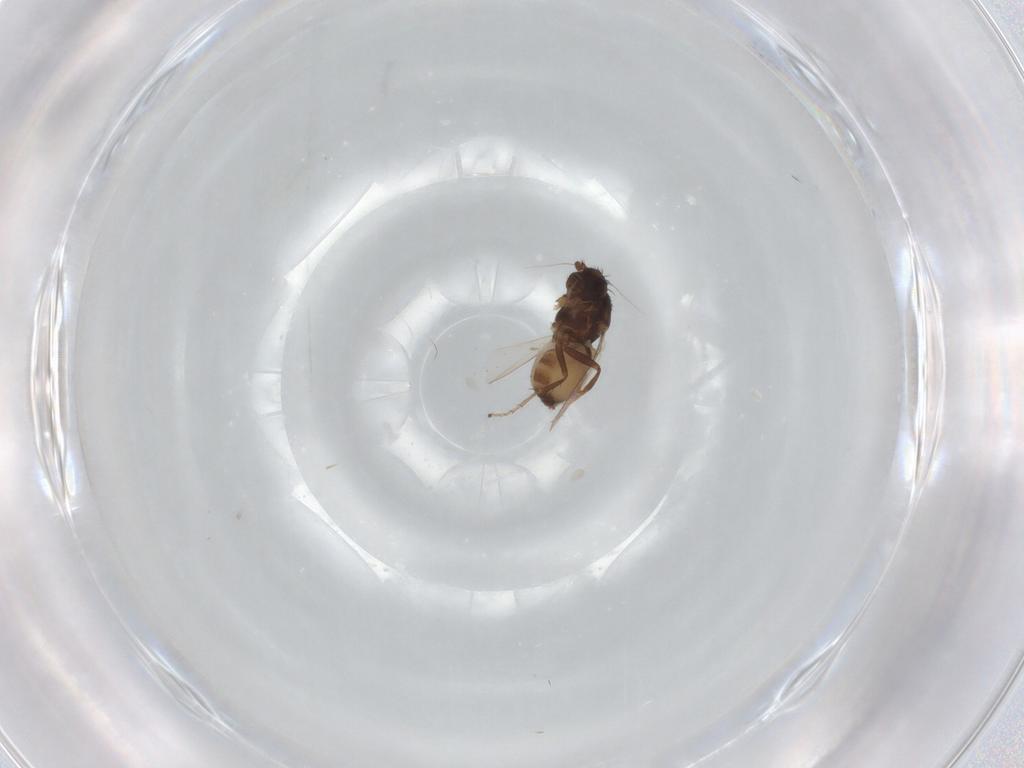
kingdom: Animalia
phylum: Arthropoda
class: Insecta
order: Diptera
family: Sphaeroceridae
